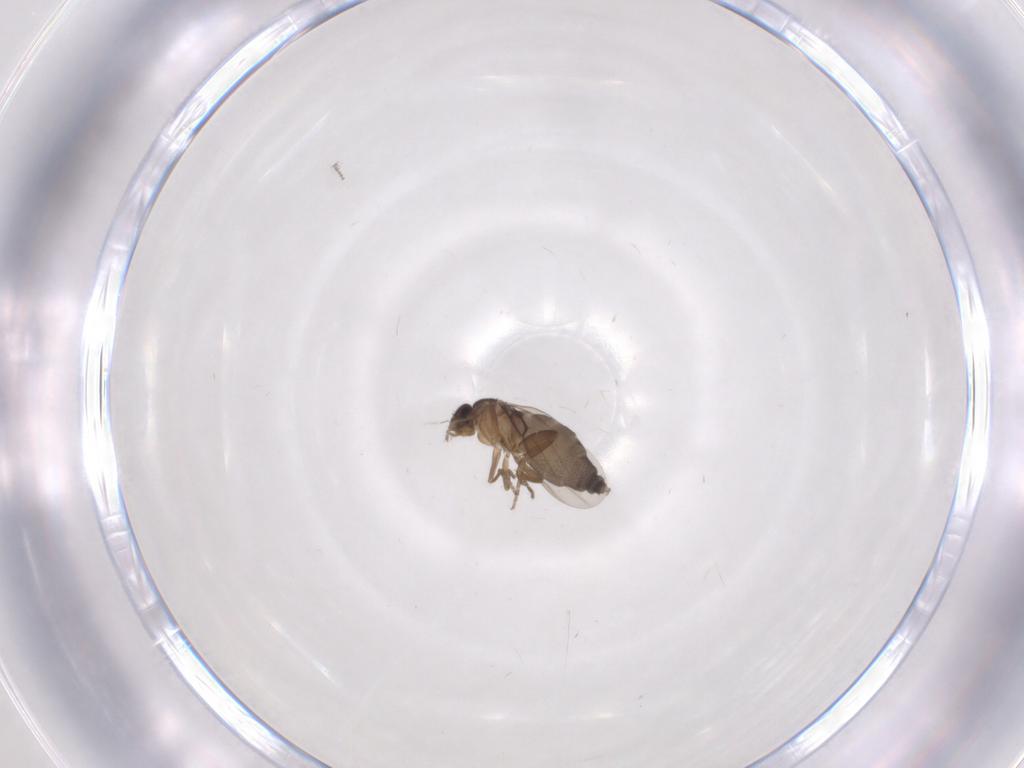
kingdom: Animalia
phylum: Arthropoda
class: Insecta
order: Diptera
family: Phoridae
